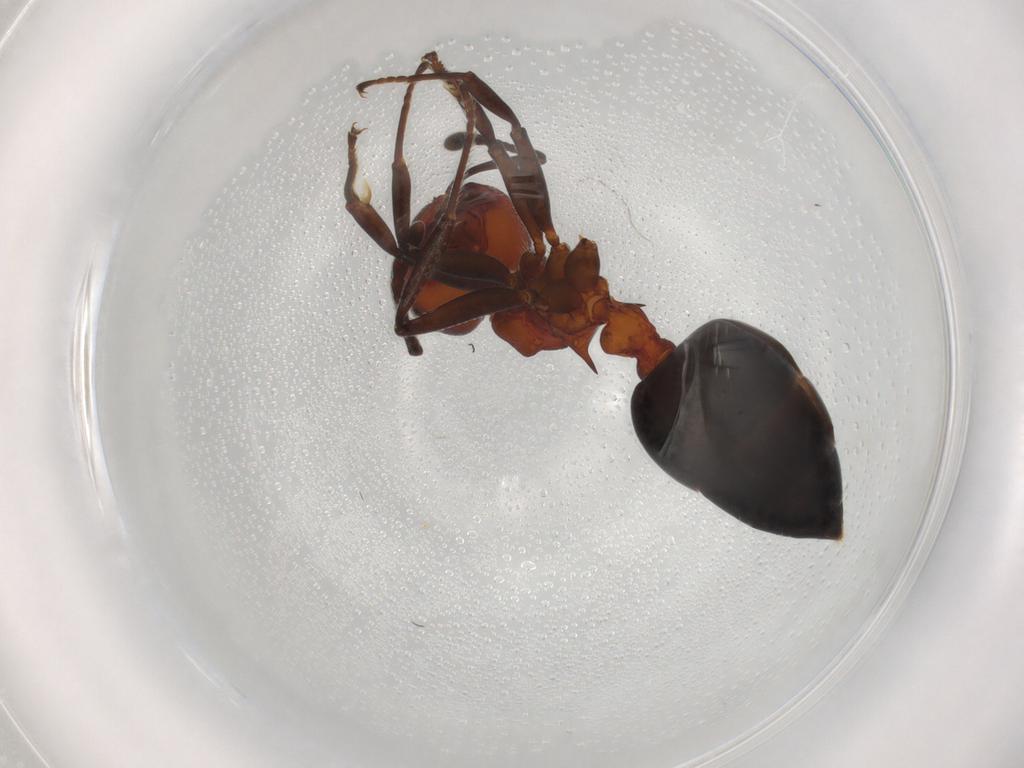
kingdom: Animalia
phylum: Arthropoda
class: Insecta
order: Hymenoptera
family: Formicidae
